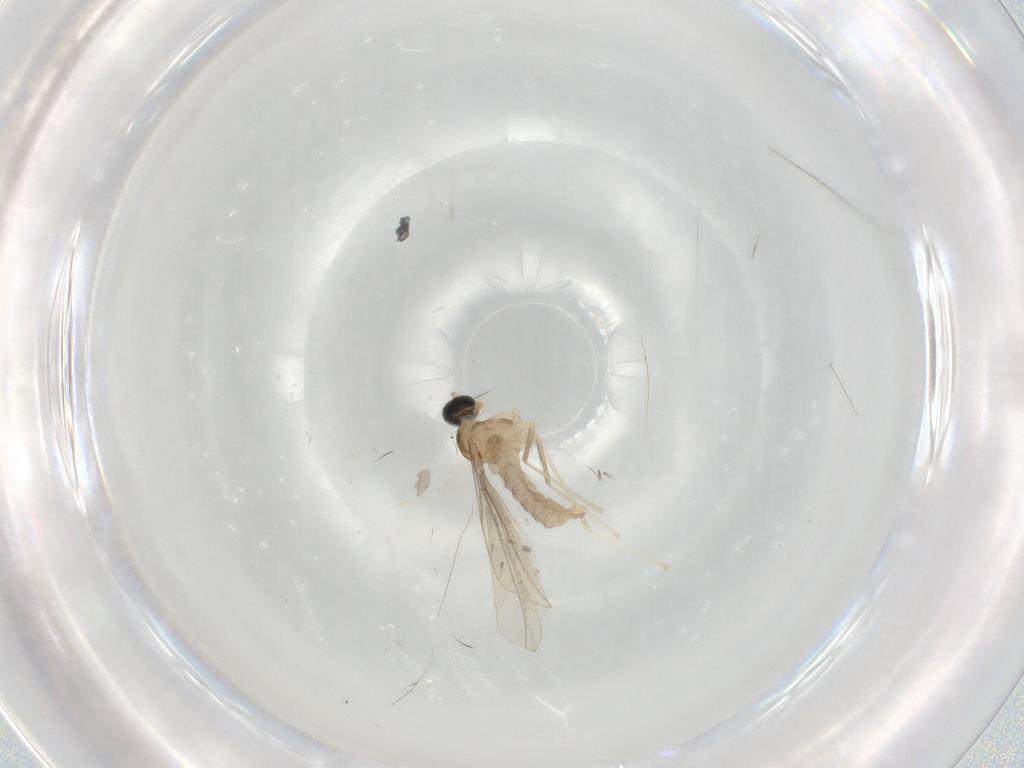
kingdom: Animalia
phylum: Arthropoda
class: Insecta
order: Diptera
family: Cecidomyiidae
